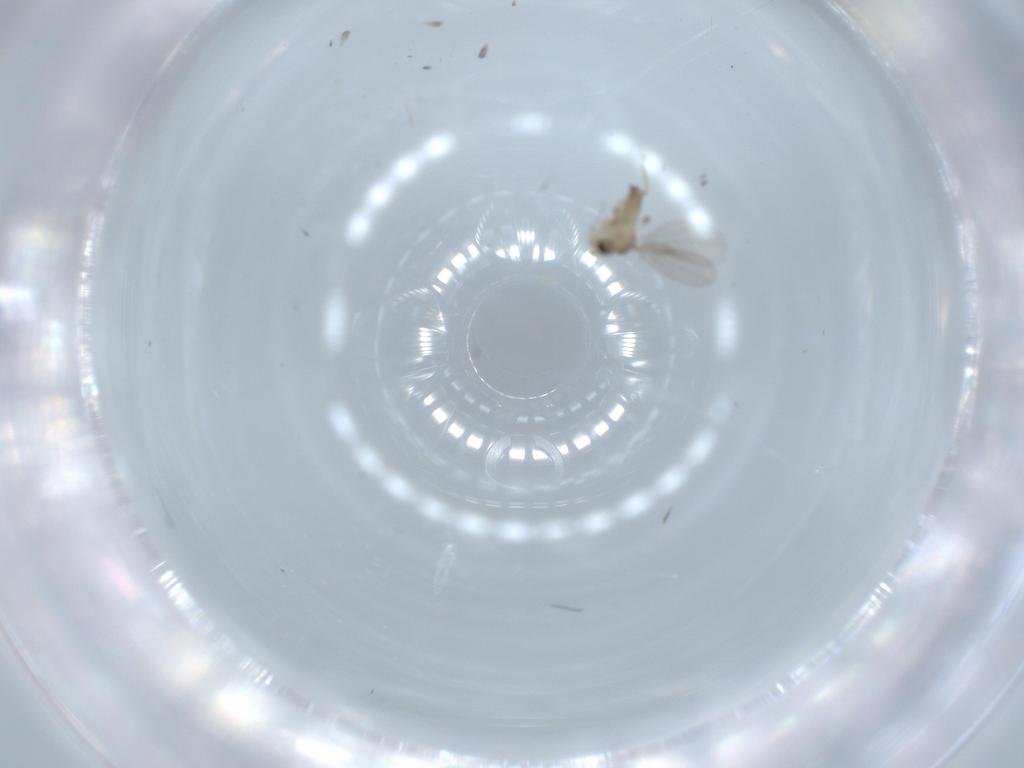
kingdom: Animalia
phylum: Arthropoda
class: Insecta
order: Diptera
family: Phoridae
